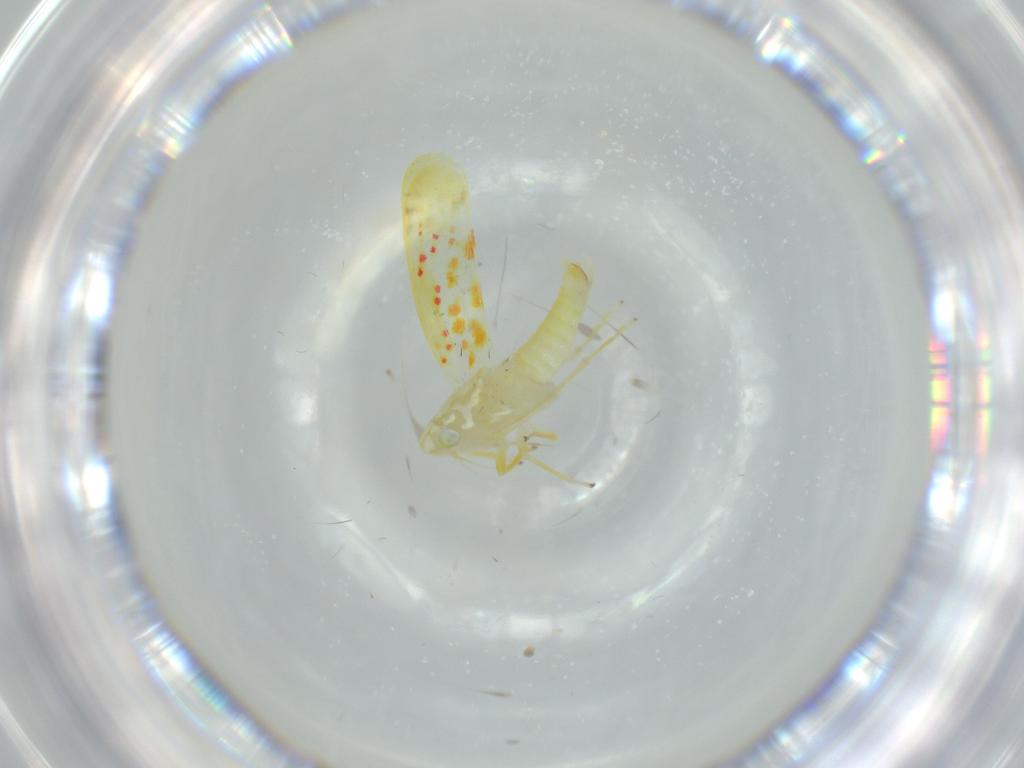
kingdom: Animalia
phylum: Arthropoda
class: Insecta
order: Hemiptera
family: Cicadellidae
